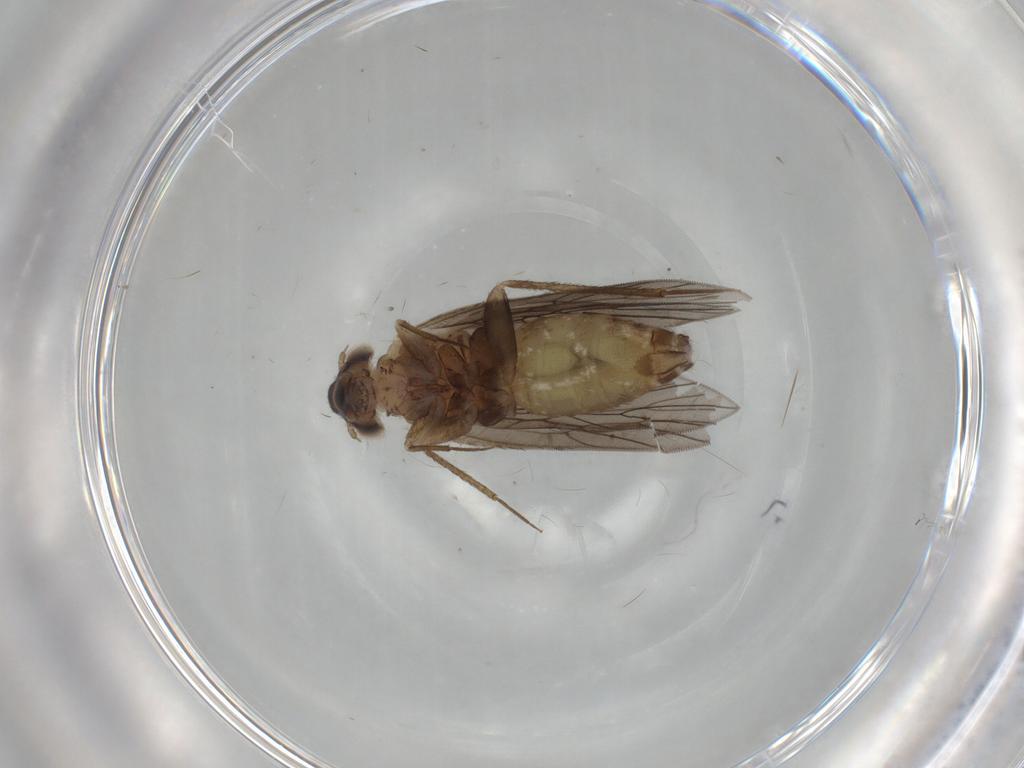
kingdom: Animalia
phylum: Arthropoda
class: Insecta
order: Psocodea
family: Lepidopsocidae
